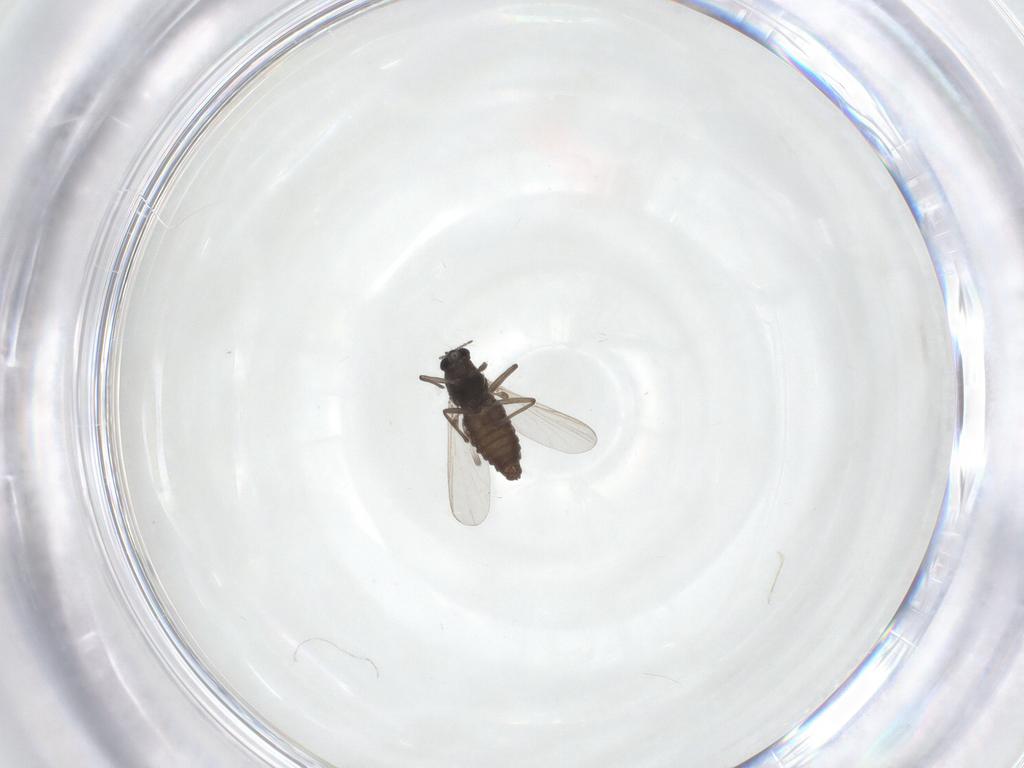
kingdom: Animalia
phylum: Arthropoda
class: Insecta
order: Diptera
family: Chironomidae
